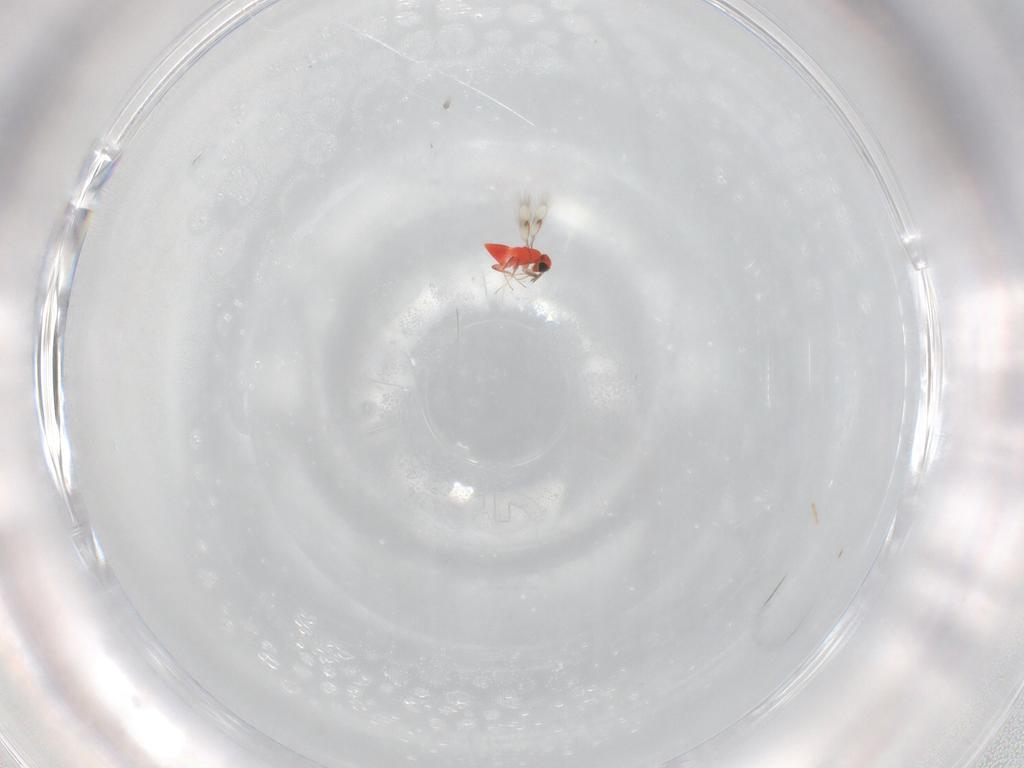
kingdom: Animalia
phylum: Arthropoda
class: Insecta
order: Hymenoptera
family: Trichogrammatidae
